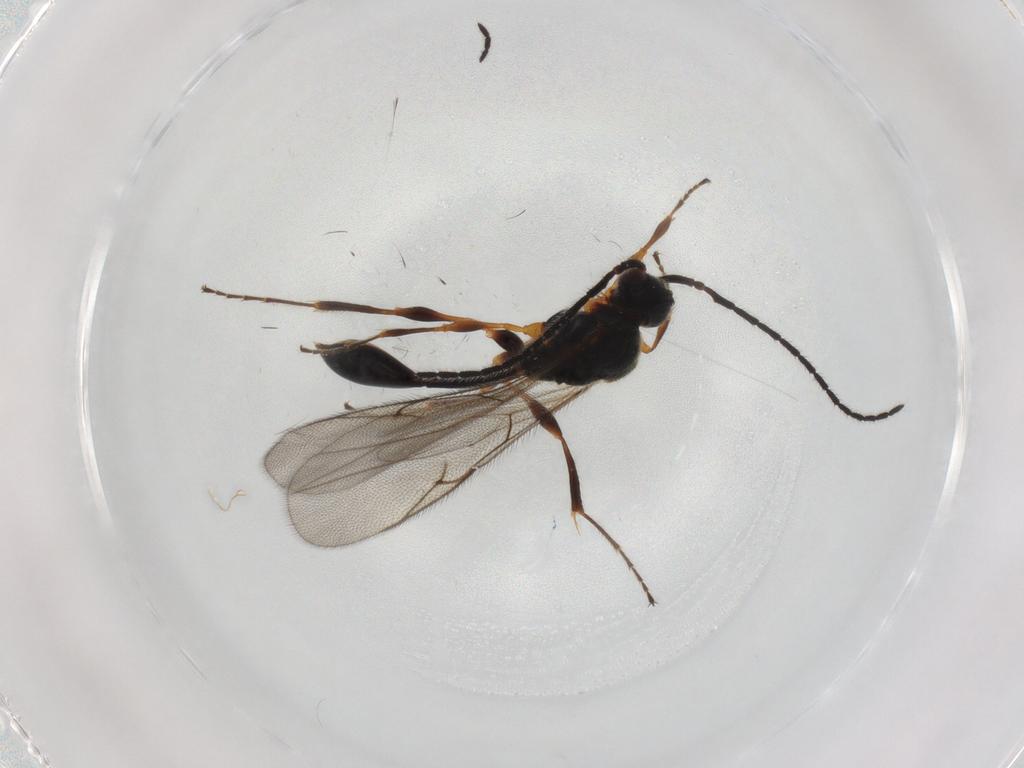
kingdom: Animalia
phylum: Arthropoda
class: Insecta
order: Hymenoptera
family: Diapriidae
